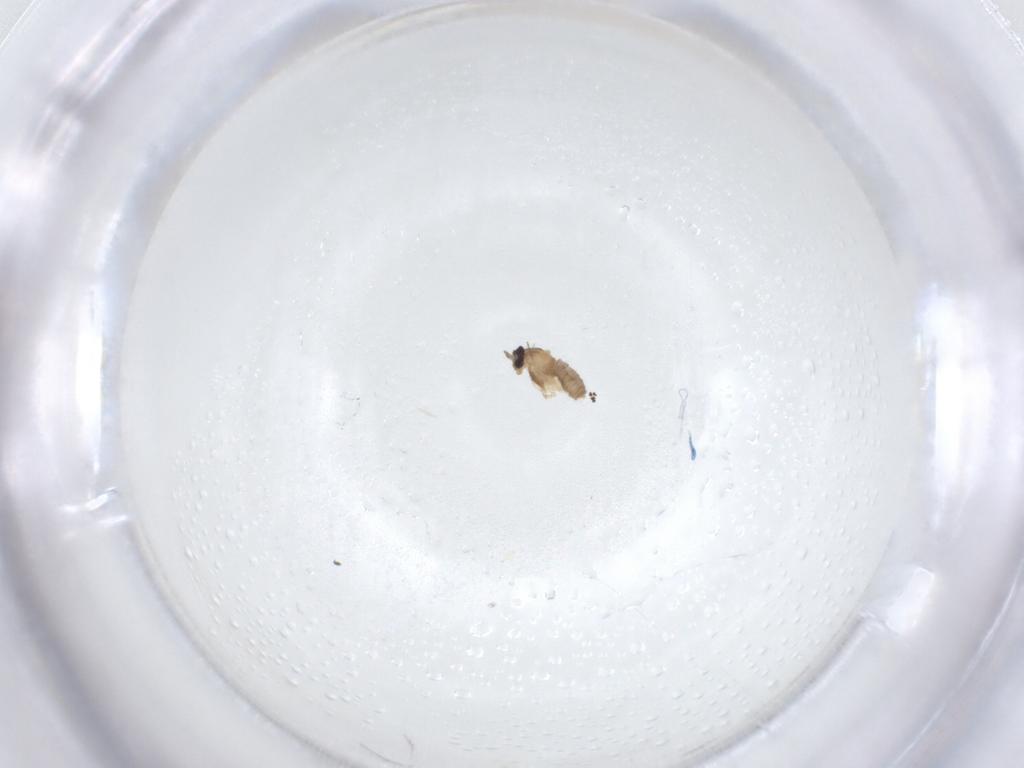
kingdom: Animalia
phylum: Arthropoda
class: Insecta
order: Diptera
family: Cecidomyiidae
